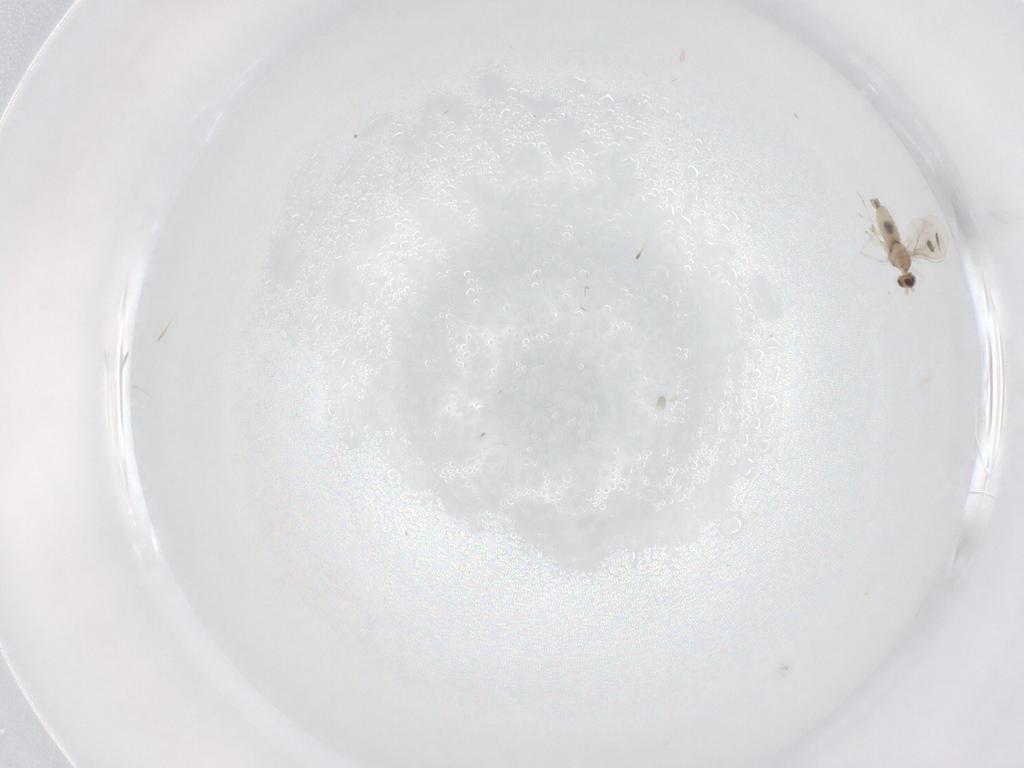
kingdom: Animalia
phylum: Arthropoda
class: Insecta
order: Diptera
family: Cecidomyiidae
